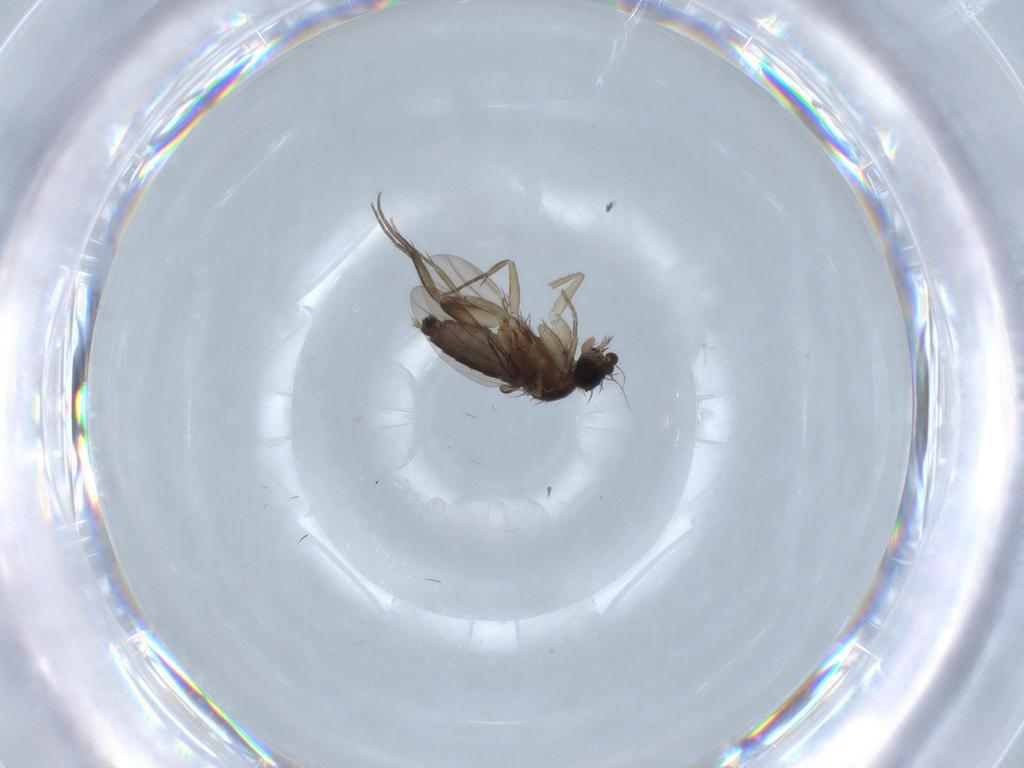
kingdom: Animalia
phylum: Arthropoda
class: Insecta
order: Diptera
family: Phoridae
